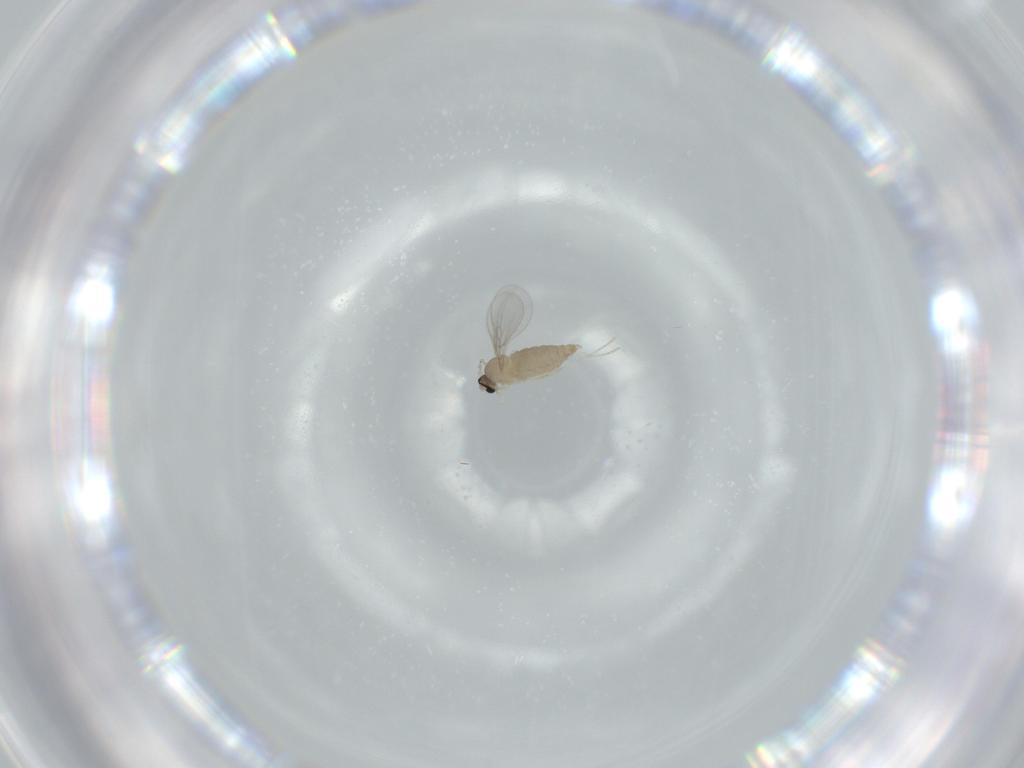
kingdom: Animalia
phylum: Arthropoda
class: Insecta
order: Diptera
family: Cecidomyiidae
